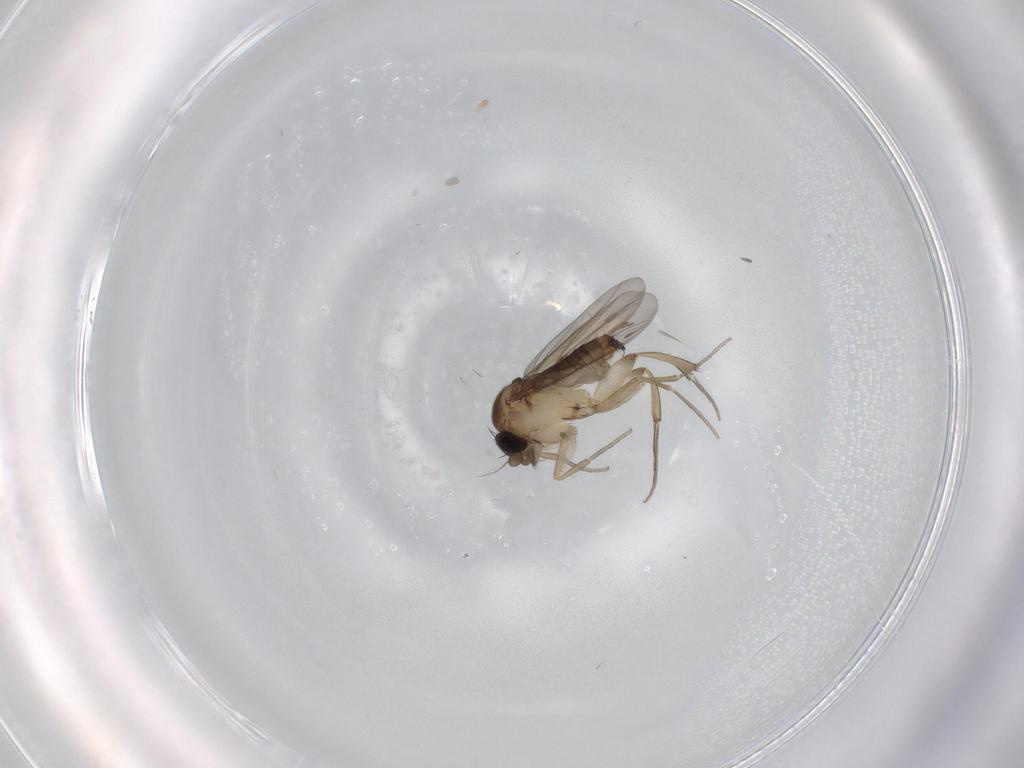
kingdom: Animalia
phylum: Arthropoda
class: Insecta
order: Diptera
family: Phoridae
